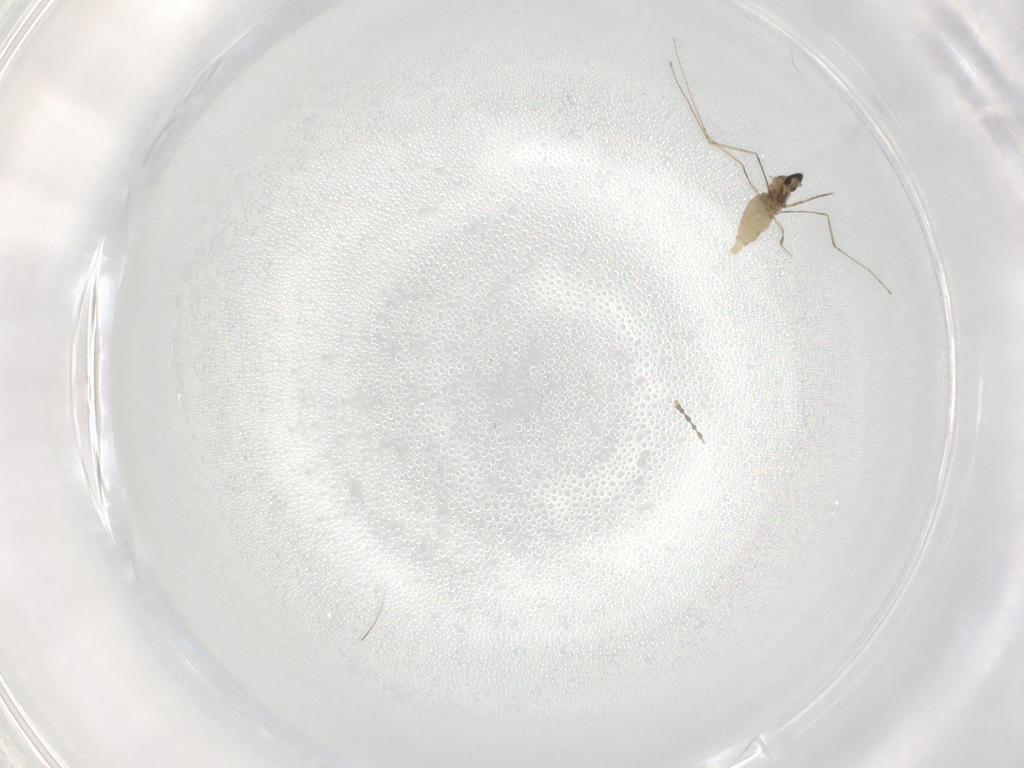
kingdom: Animalia
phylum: Arthropoda
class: Insecta
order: Diptera
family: Cecidomyiidae
